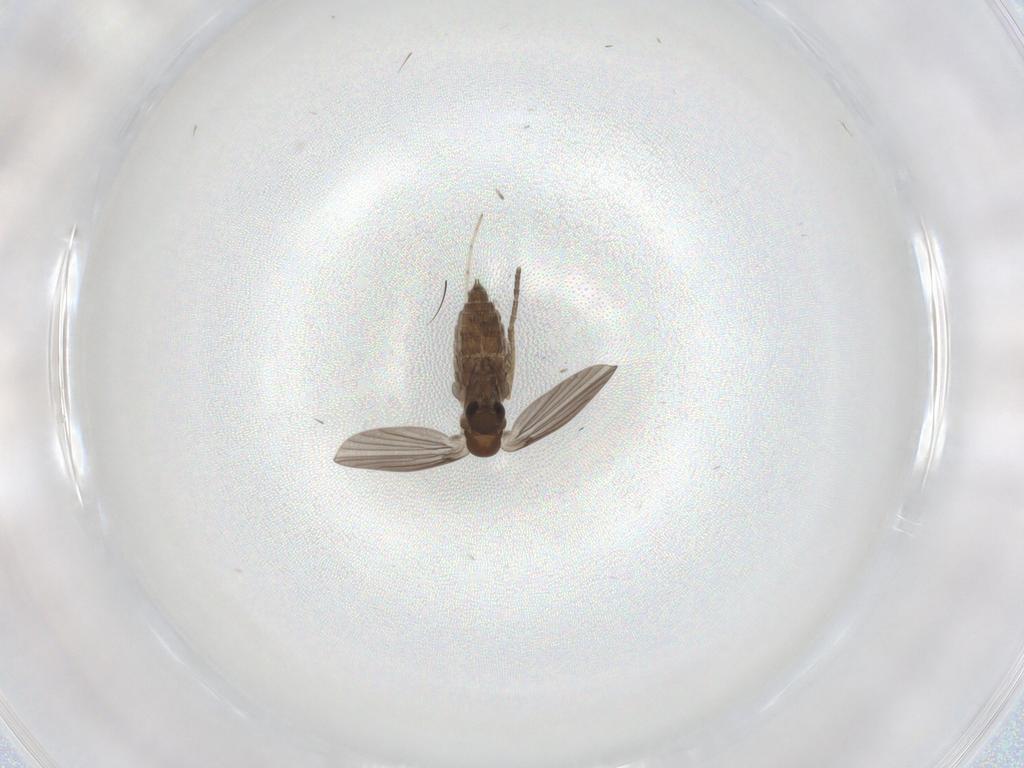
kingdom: Animalia
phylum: Arthropoda
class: Insecta
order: Diptera
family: Cecidomyiidae
